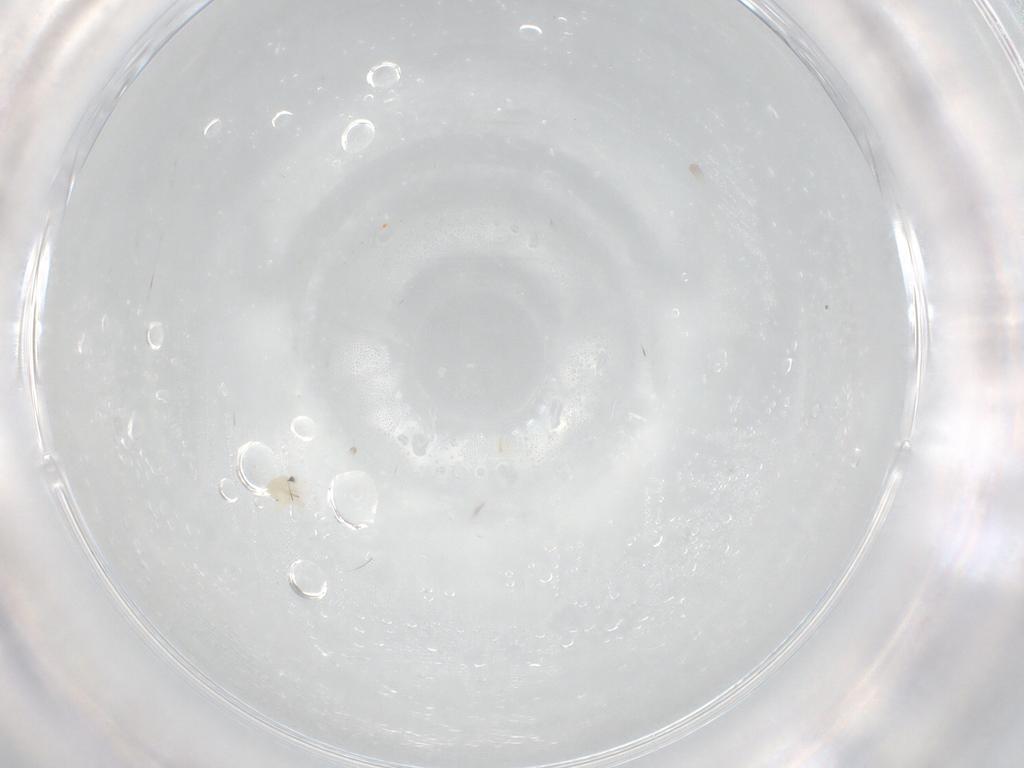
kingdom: Animalia
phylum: Arthropoda
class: Arachnida
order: Trombidiformes
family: Anystidae
